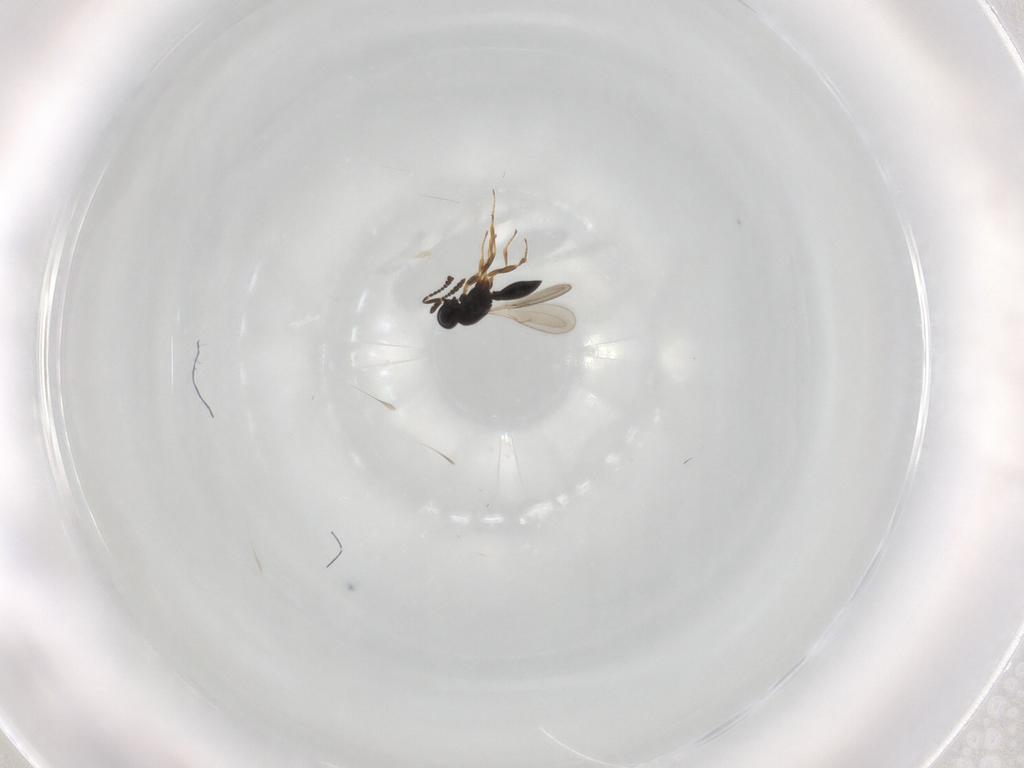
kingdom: Animalia
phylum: Arthropoda
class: Insecta
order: Hymenoptera
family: Scelionidae
